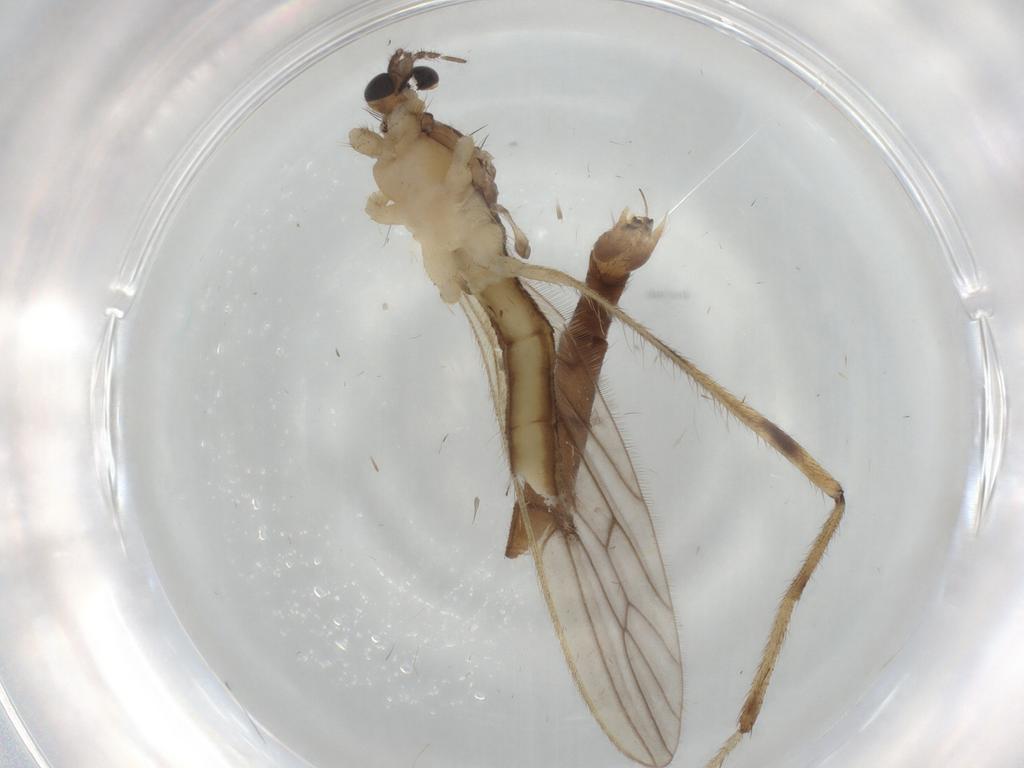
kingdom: Animalia
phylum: Arthropoda
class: Insecta
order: Diptera
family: Limoniidae
